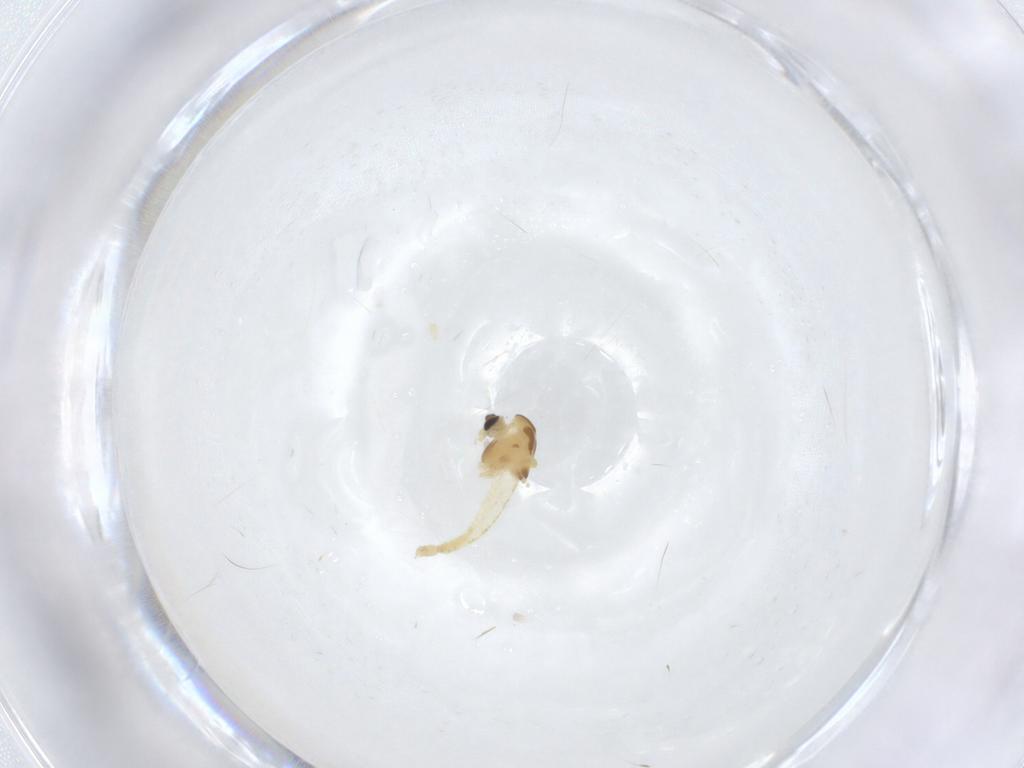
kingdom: Animalia
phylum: Arthropoda
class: Insecta
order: Diptera
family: Chironomidae
